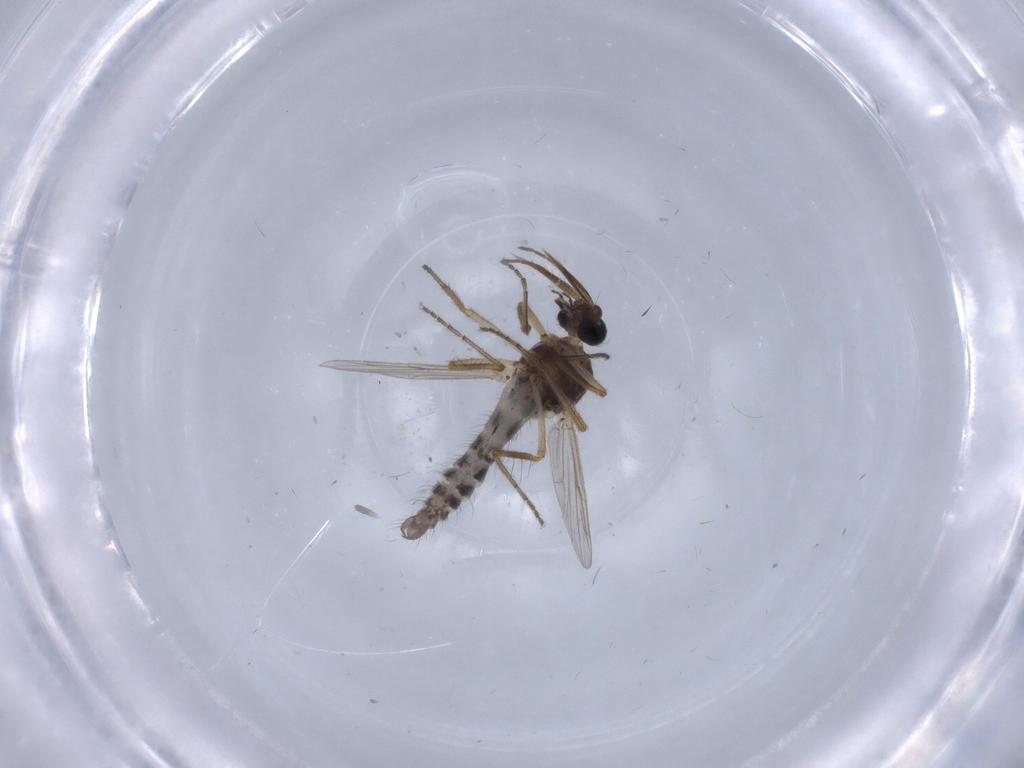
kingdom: Animalia
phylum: Arthropoda
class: Insecta
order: Diptera
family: Ceratopogonidae
